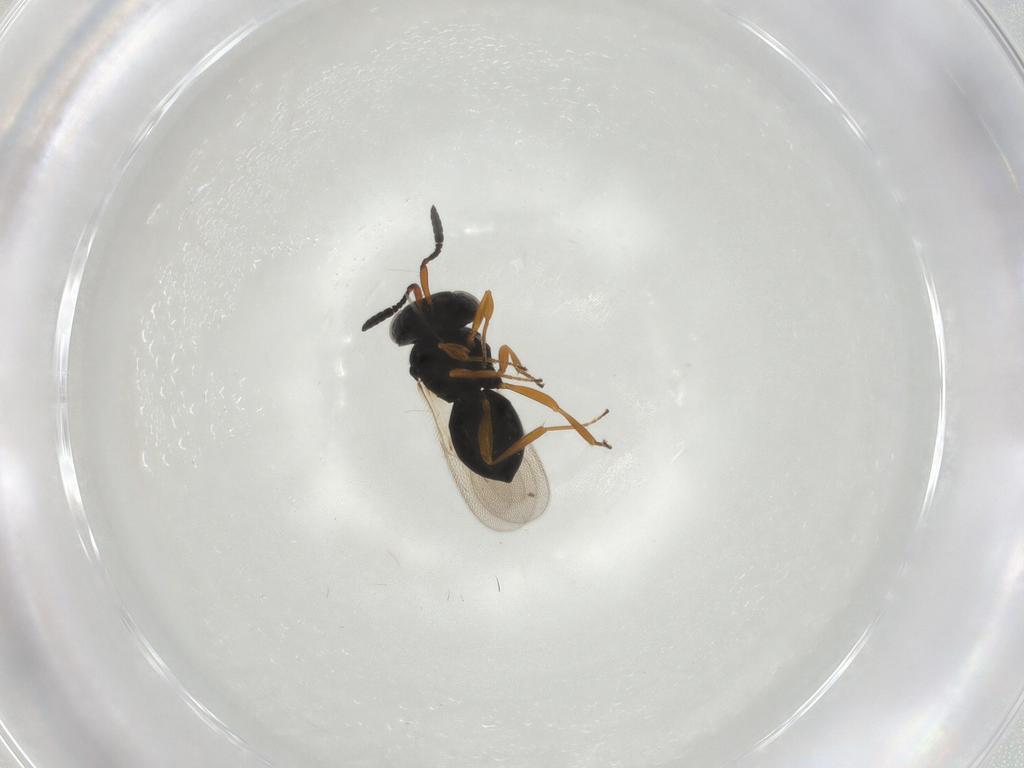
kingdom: Animalia
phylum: Arthropoda
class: Insecta
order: Hymenoptera
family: Scelionidae
